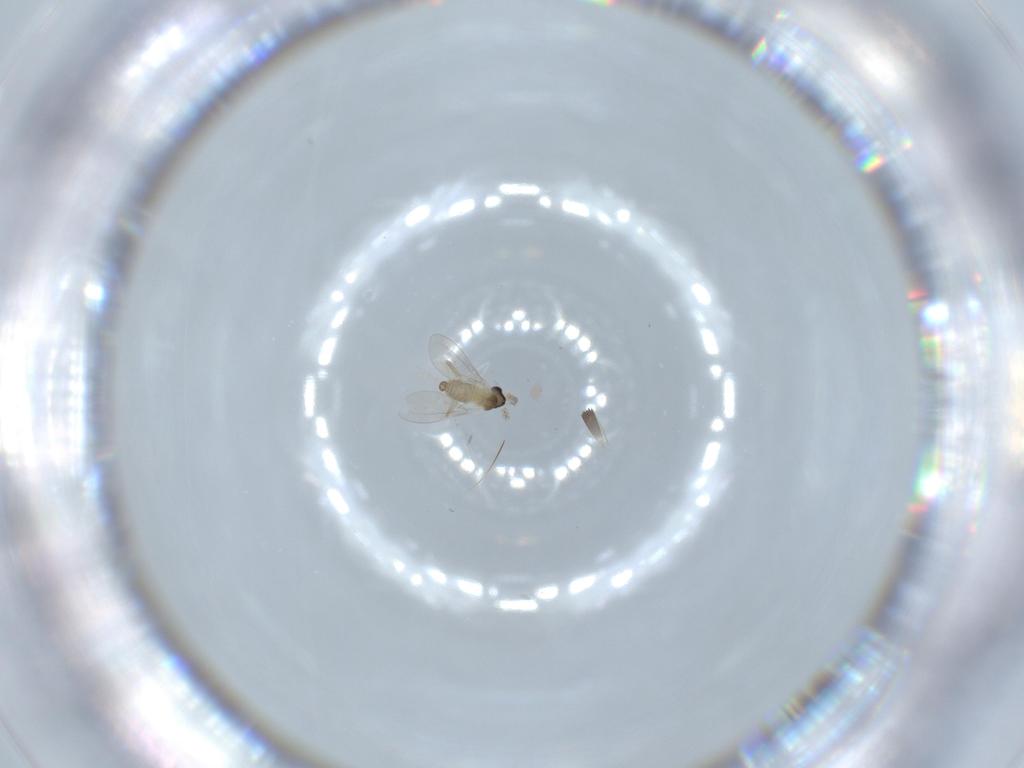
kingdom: Animalia
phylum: Arthropoda
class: Insecta
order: Diptera
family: Cecidomyiidae
